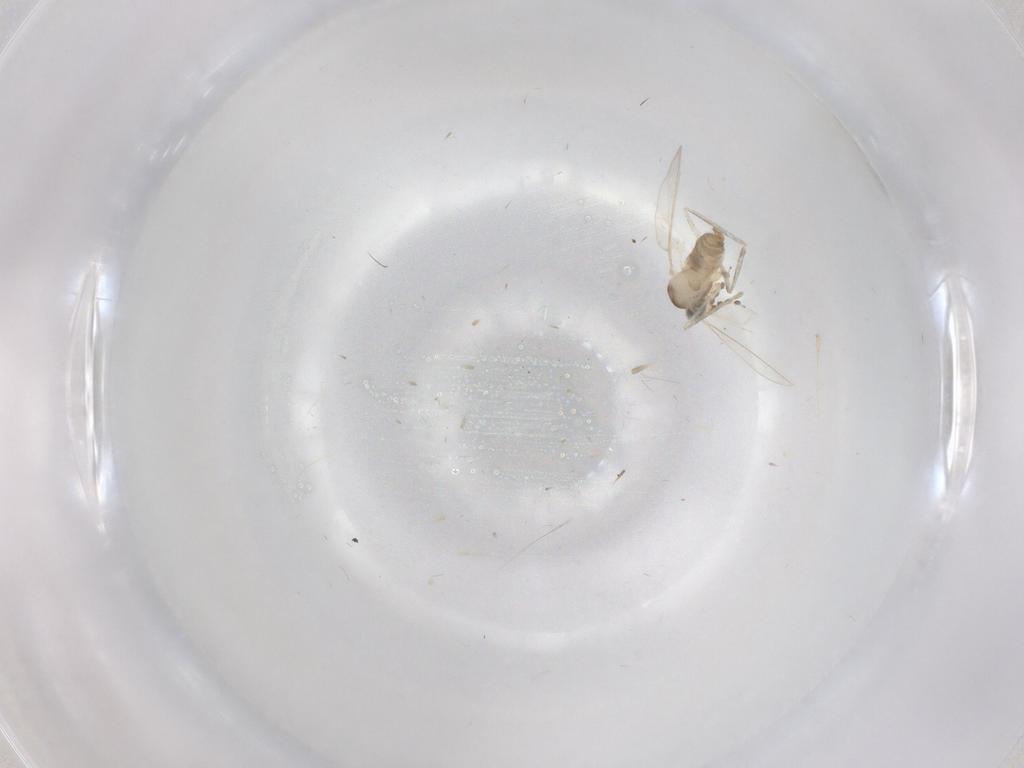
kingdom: Animalia
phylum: Arthropoda
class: Insecta
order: Diptera
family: Cecidomyiidae
